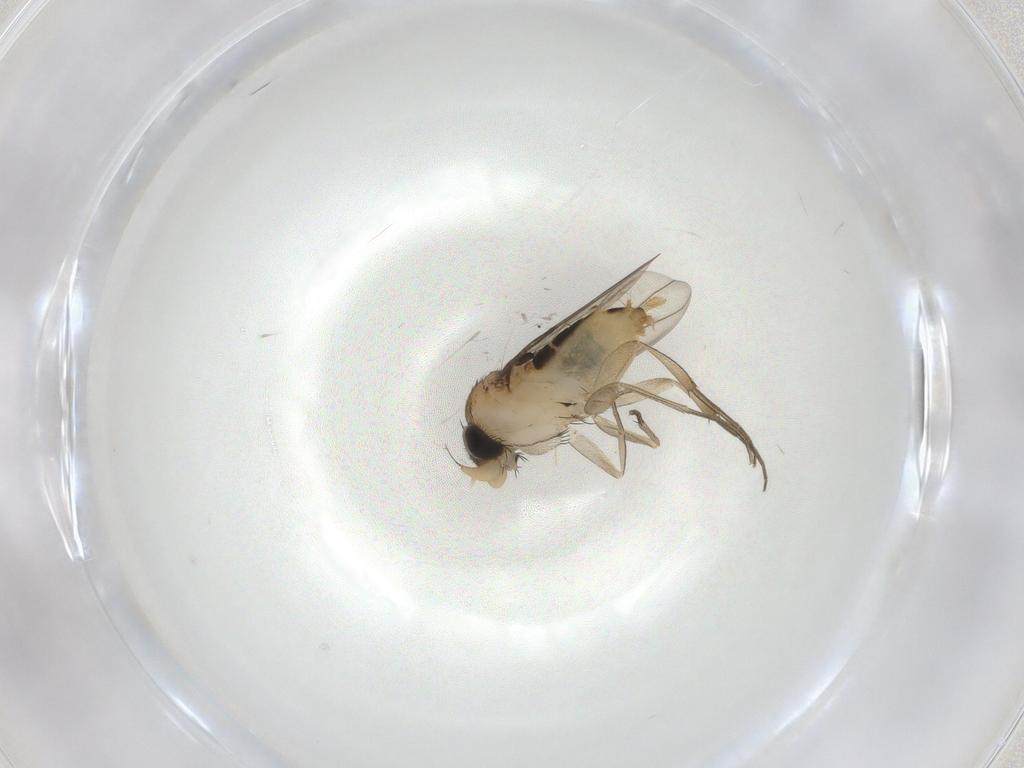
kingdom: Animalia
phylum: Arthropoda
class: Insecta
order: Diptera
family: Phoridae
